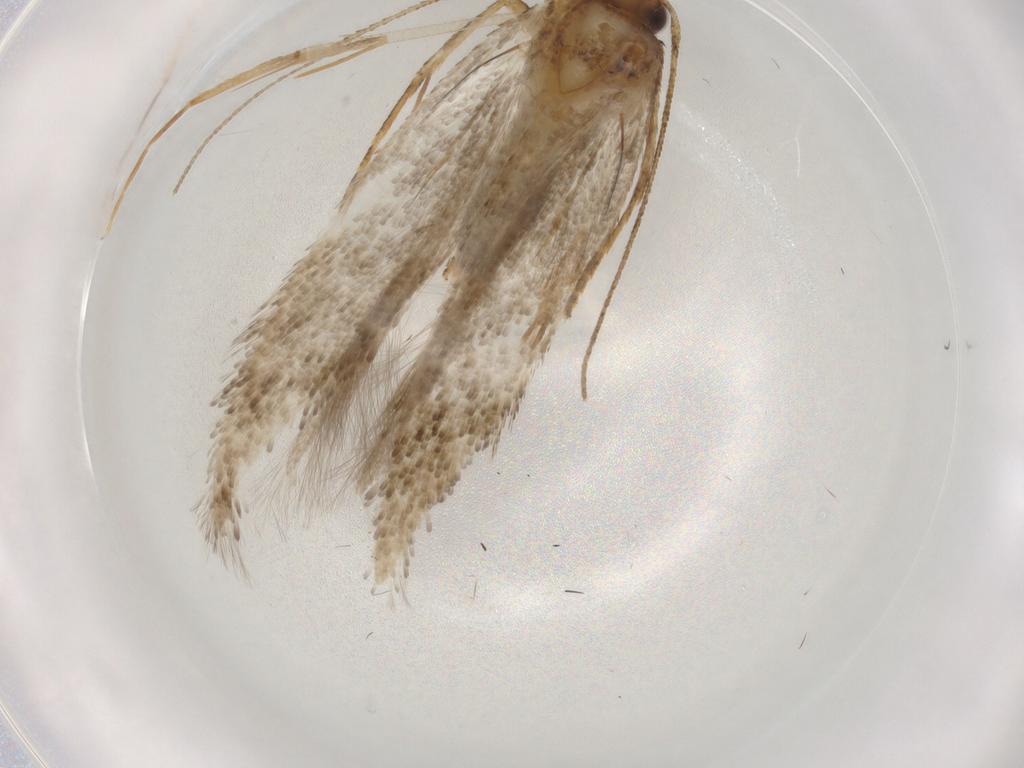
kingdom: Animalia
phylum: Arthropoda
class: Insecta
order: Lepidoptera
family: Gelechiidae
